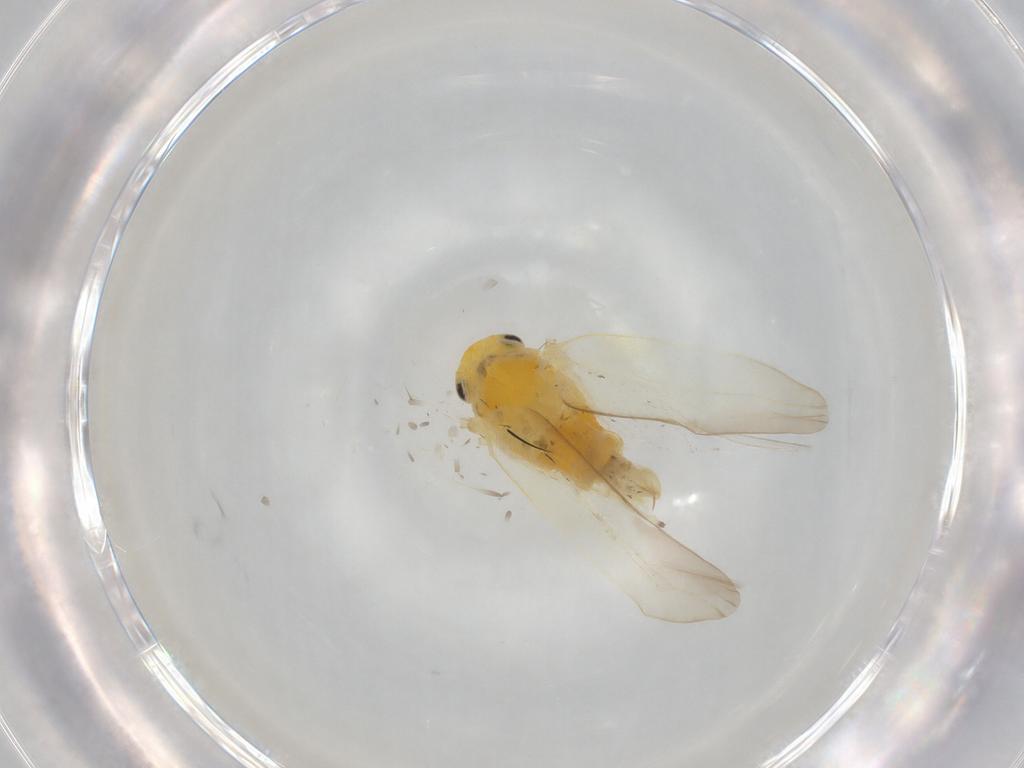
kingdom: Animalia
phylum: Arthropoda
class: Insecta
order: Hemiptera
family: Cicadellidae
